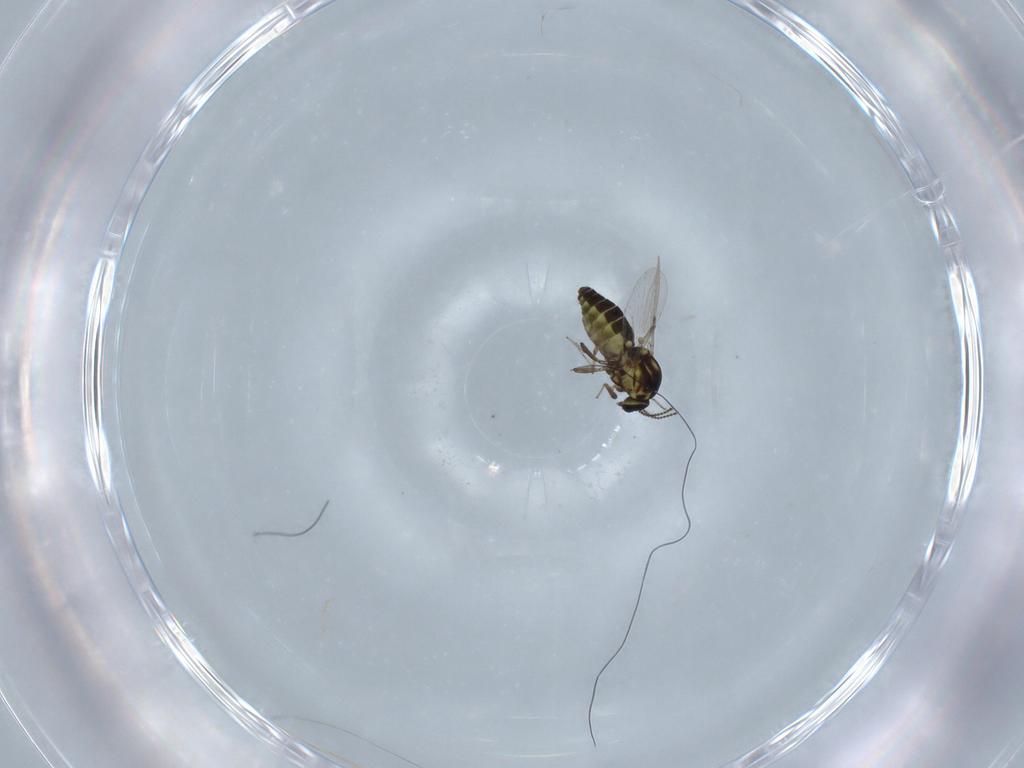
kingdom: Animalia
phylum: Arthropoda
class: Insecta
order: Diptera
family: Ceratopogonidae
